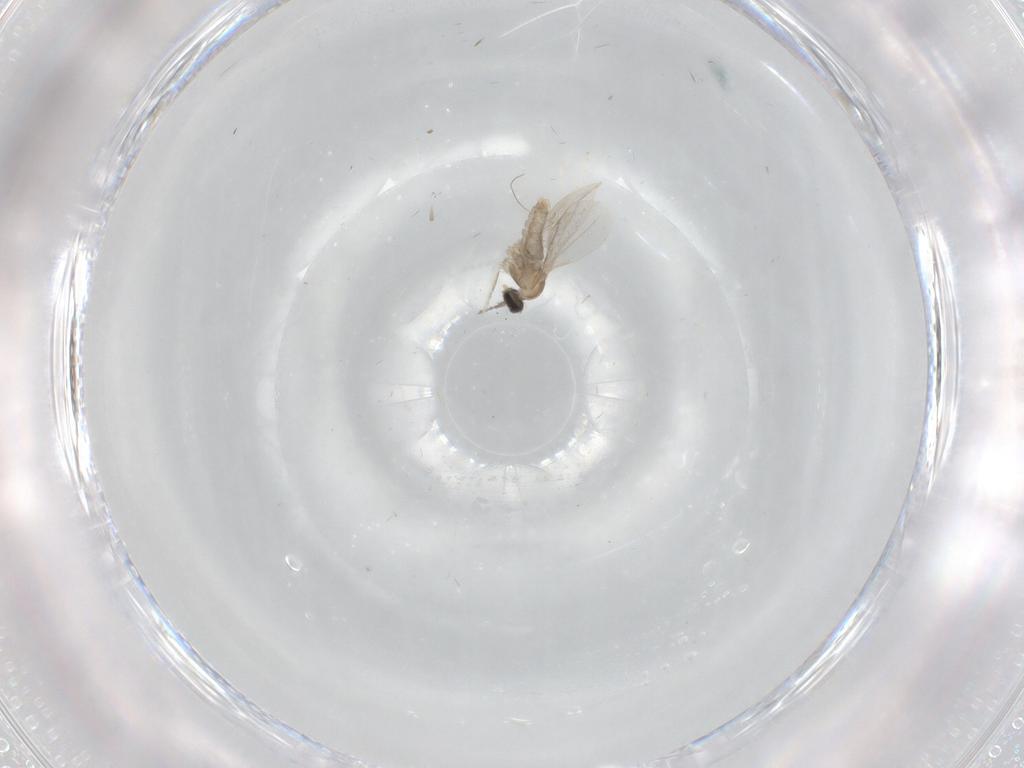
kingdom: Animalia
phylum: Arthropoda
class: Insecta
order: Diptera
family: Cecidomyiidae
